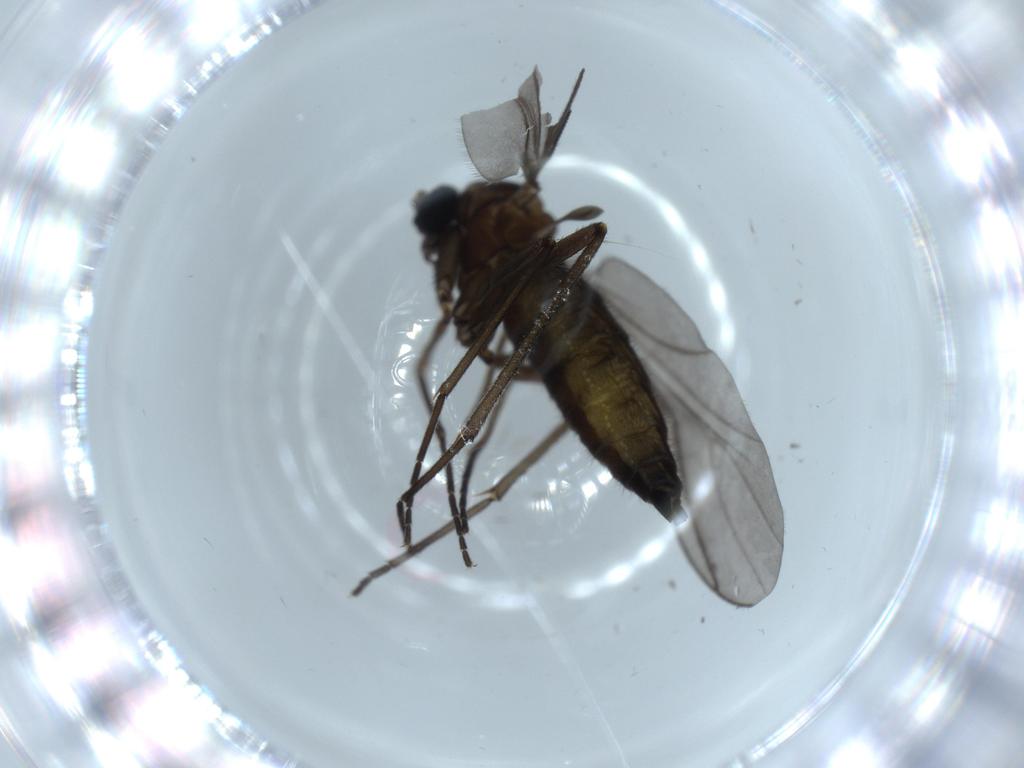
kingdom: Animalia
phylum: Arthropoda
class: Insecta
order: Diptera
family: Sciaridae
